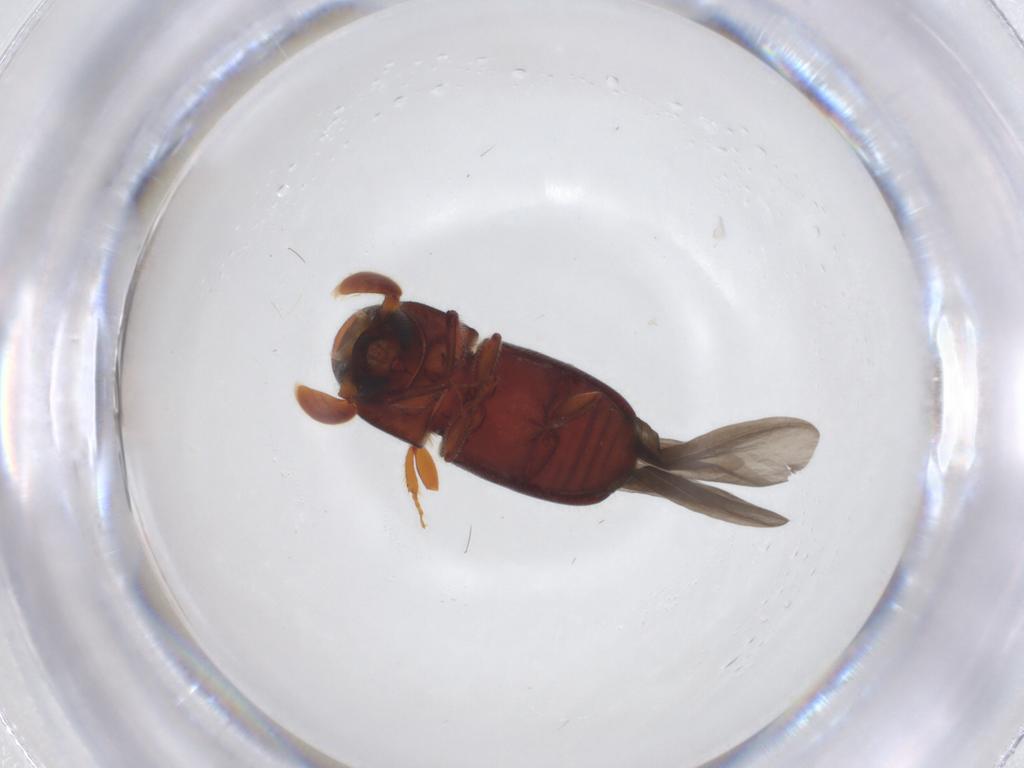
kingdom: Animalia
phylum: Arthropoda
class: Insecta
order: Coleoptera
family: Curculionidae
